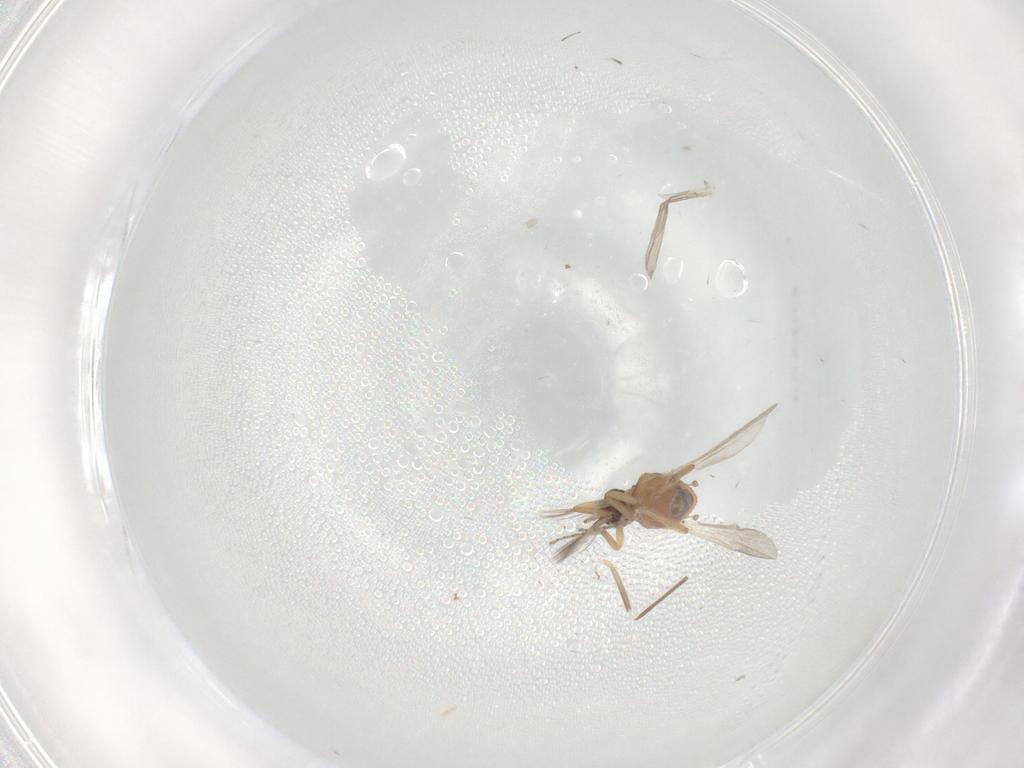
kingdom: Animalia
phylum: Arthropoda
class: Insecta
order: Diptera
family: Ceratopogonidae
